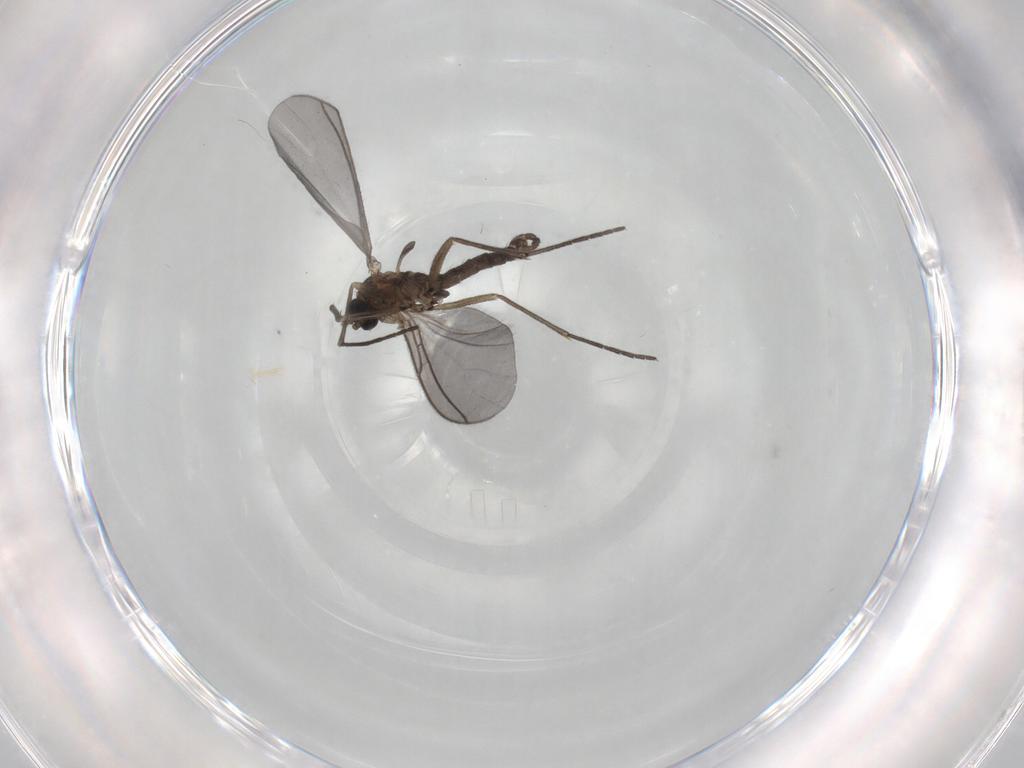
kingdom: Animalia
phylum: Arthropoda
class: Insecta
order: Diptera
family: Sciaridae
